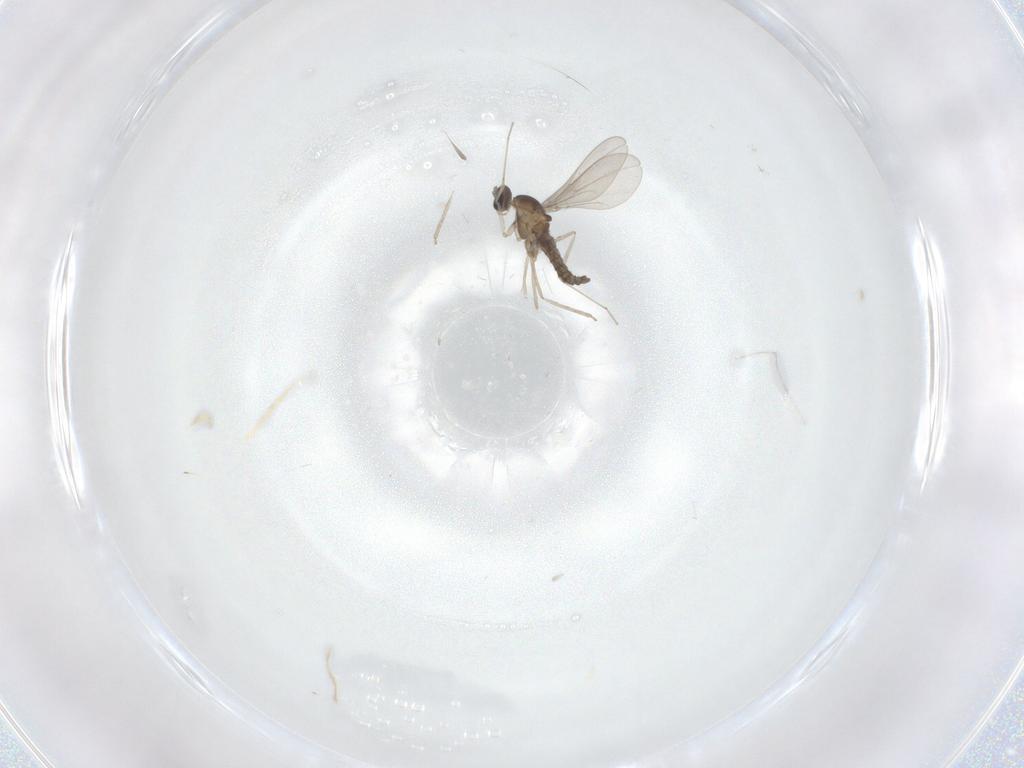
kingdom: Animalia
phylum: Arthropoda
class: Insecta
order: Diptera
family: Cecidomyiidae
